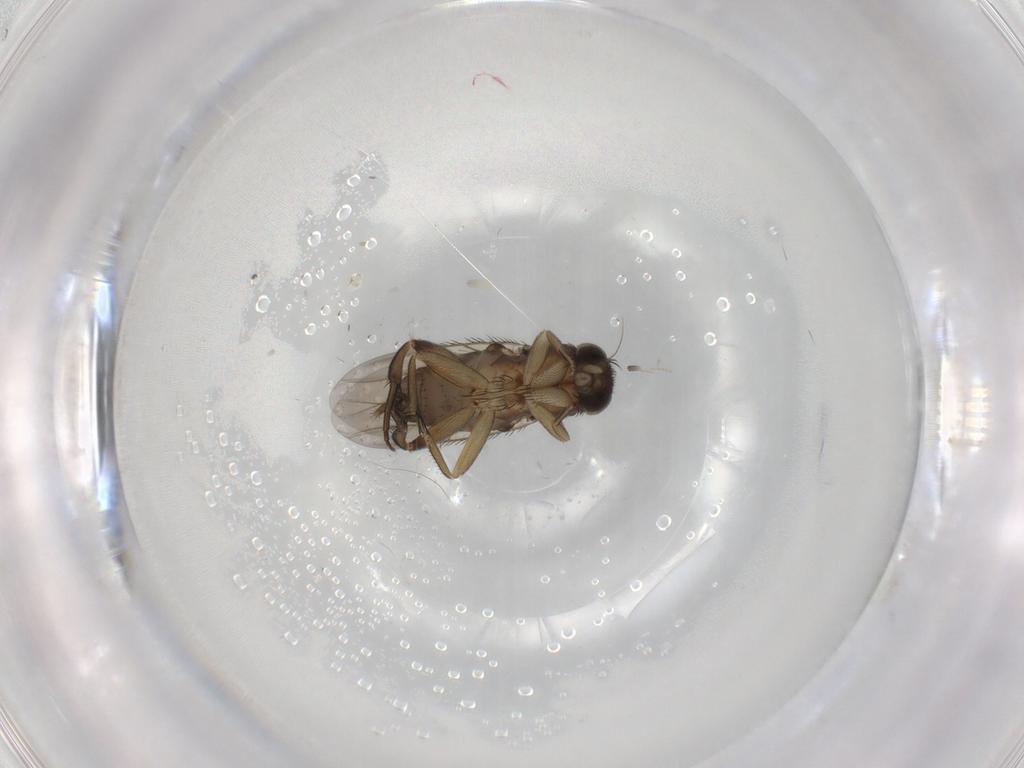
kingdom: Animalia
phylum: Arthropoda
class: Insecta
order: Diptera
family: Phoridae
